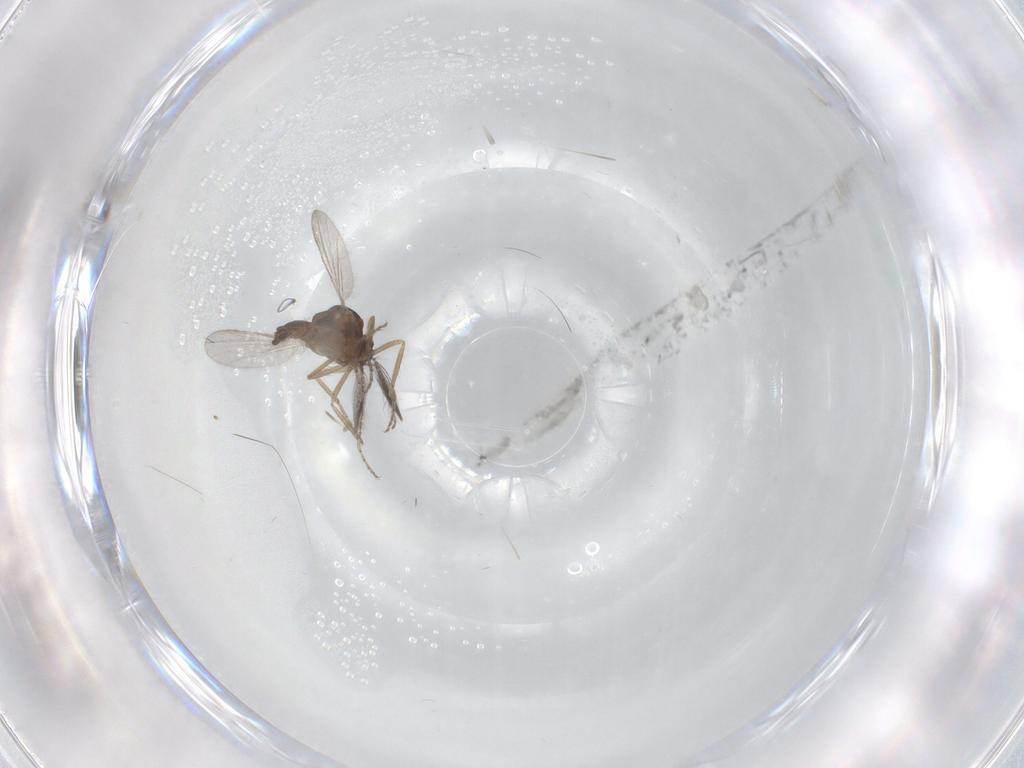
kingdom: Animalia
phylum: Arthropoda
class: Insecta
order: Diptera
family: Ceratopogonidae
